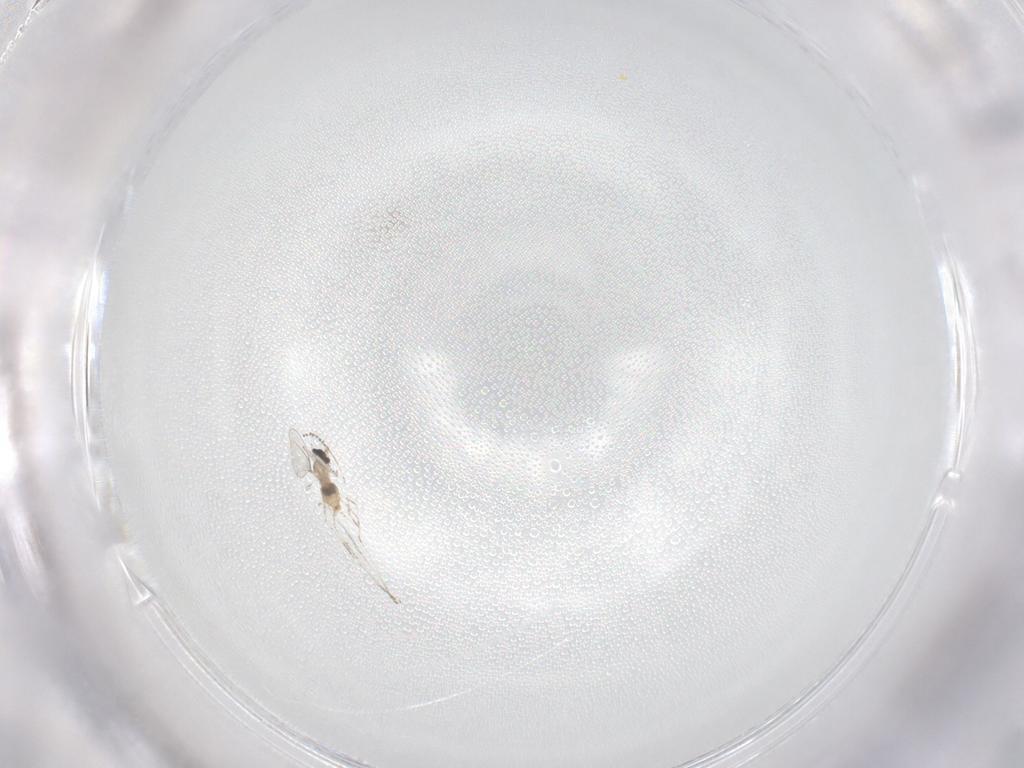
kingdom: Animalia
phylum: Arthropoda
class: Insecta
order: Diptera
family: Cecidomyiidae
